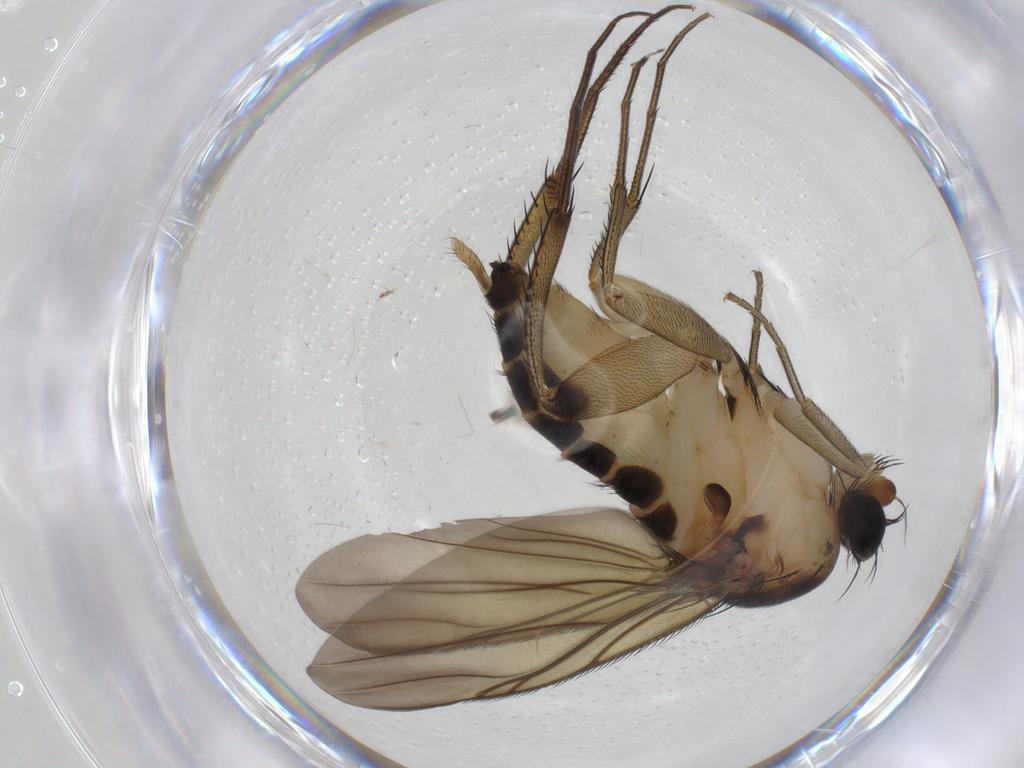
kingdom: Animalia
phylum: Arthropoda
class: Insecta
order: Diptera
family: Phoridae
